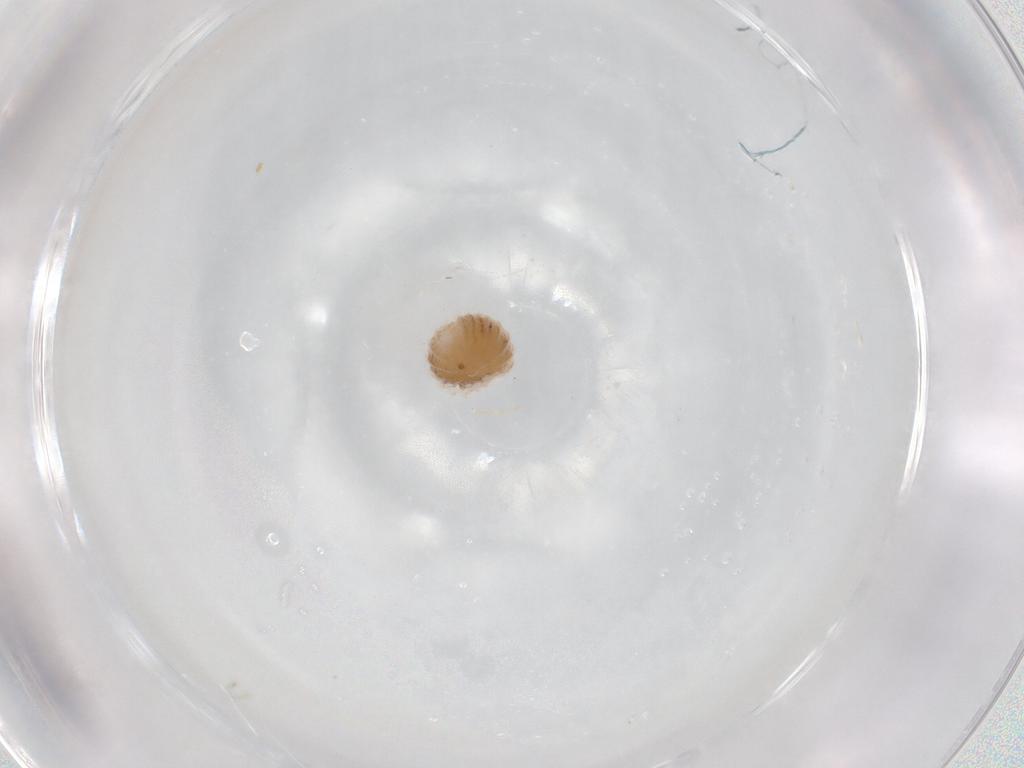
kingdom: Animalia
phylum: Arthropoda
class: Insecta
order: Lepidoptera
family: Noctuidae
